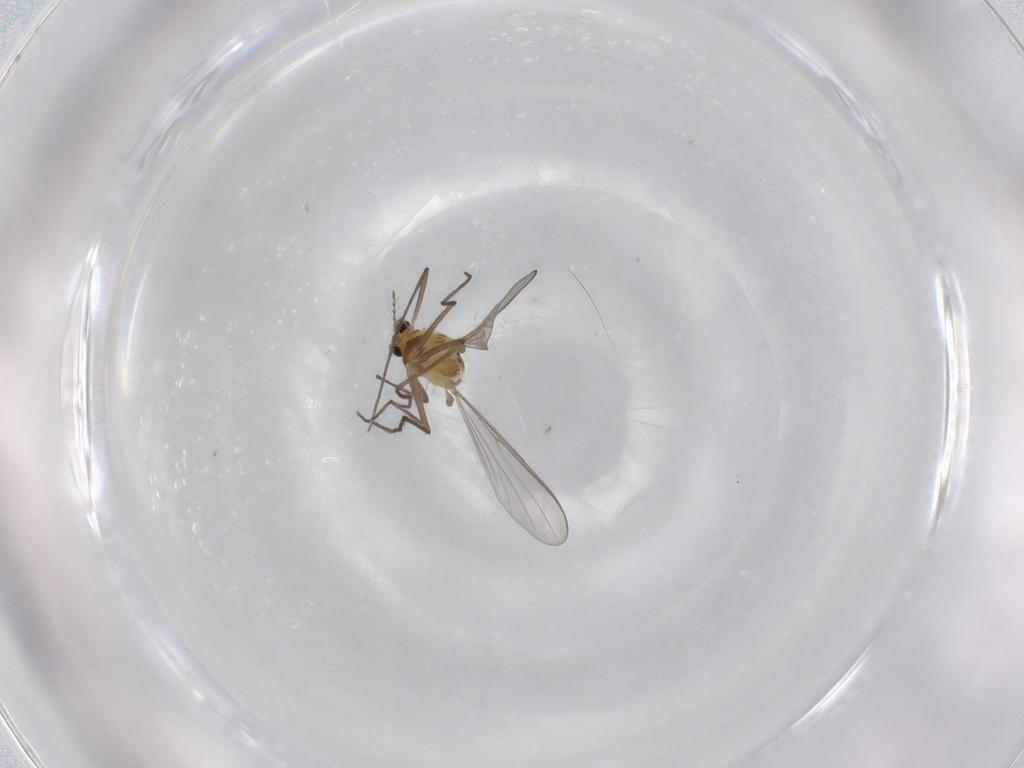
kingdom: Animalia
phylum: Arthropoda
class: Insecta
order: Diptera
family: Chironomidae
